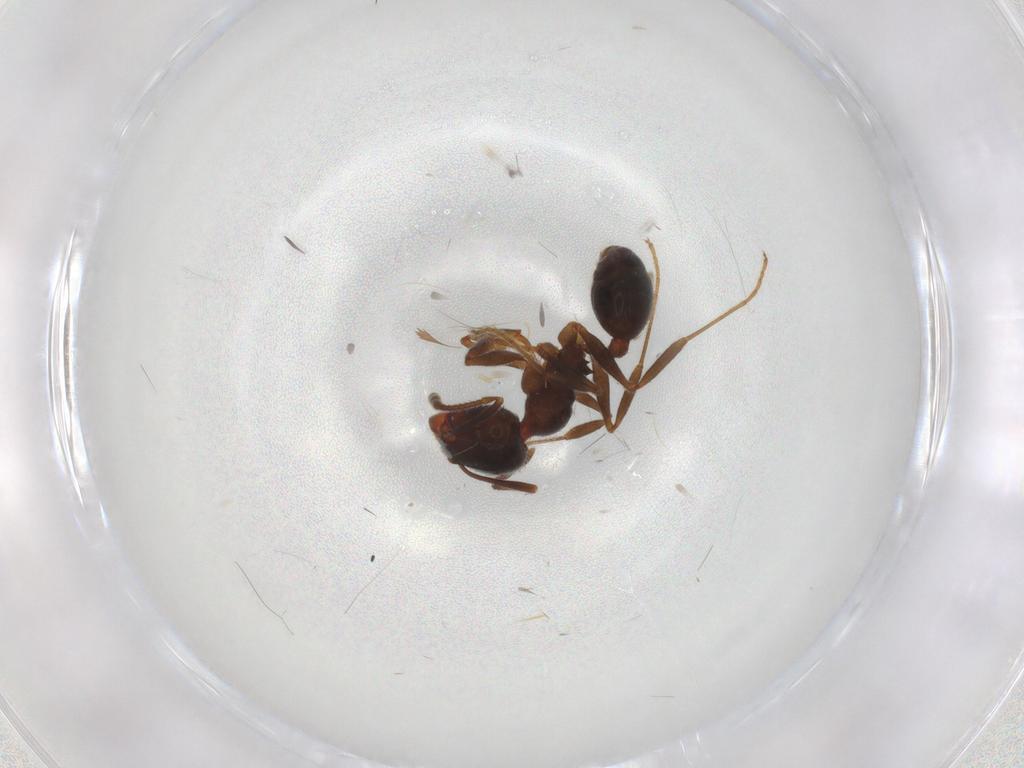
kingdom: Animalia
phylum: Arthropoda
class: Insecta
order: Hymenoptera
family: Formicidae
